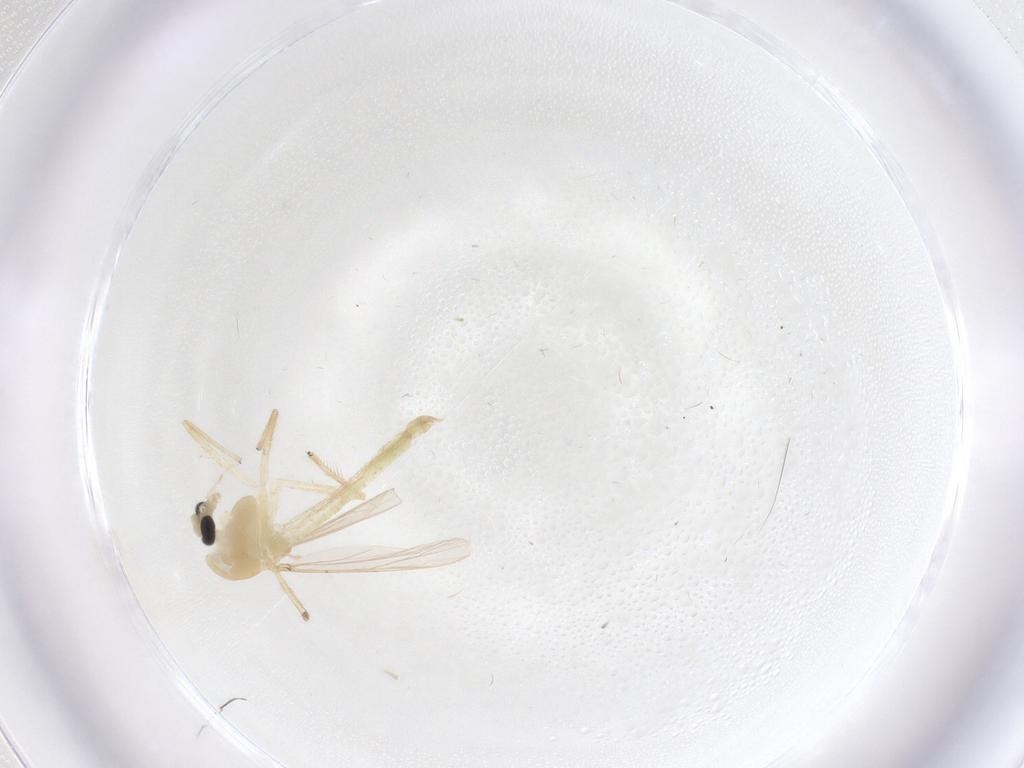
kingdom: Animalia
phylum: Arthropoda
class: Insecta
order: Diptera
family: Chironomidae
